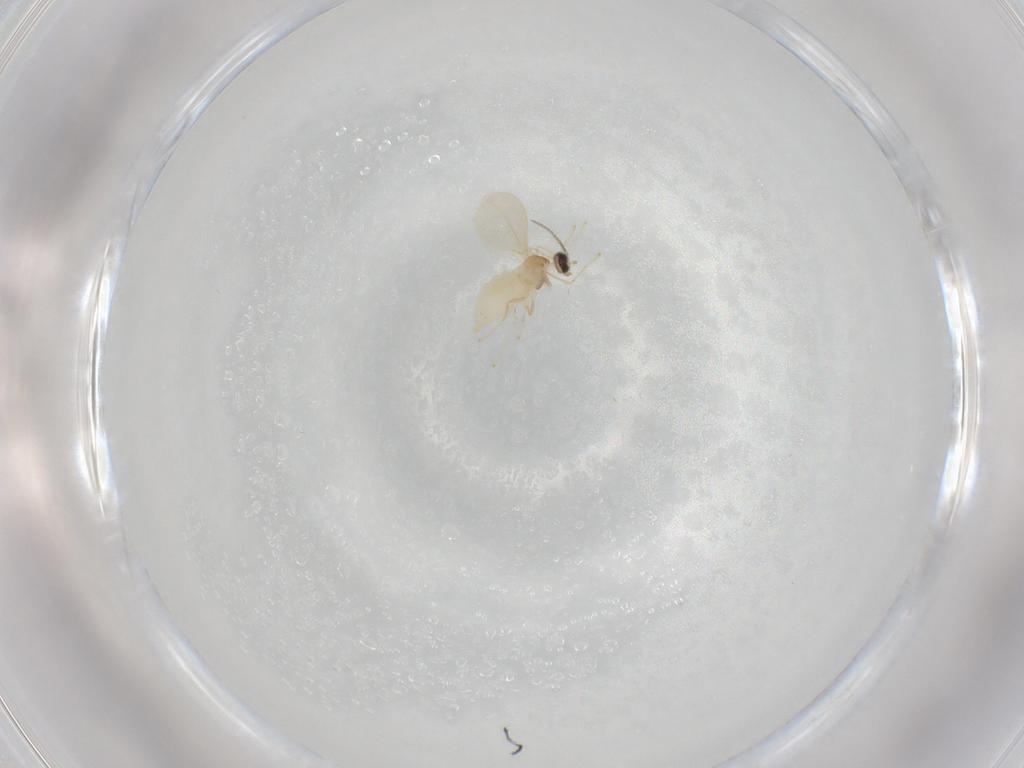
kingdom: Animalia
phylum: Arthropoda
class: Insecta
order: Diptera
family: Cecidomyiidae
